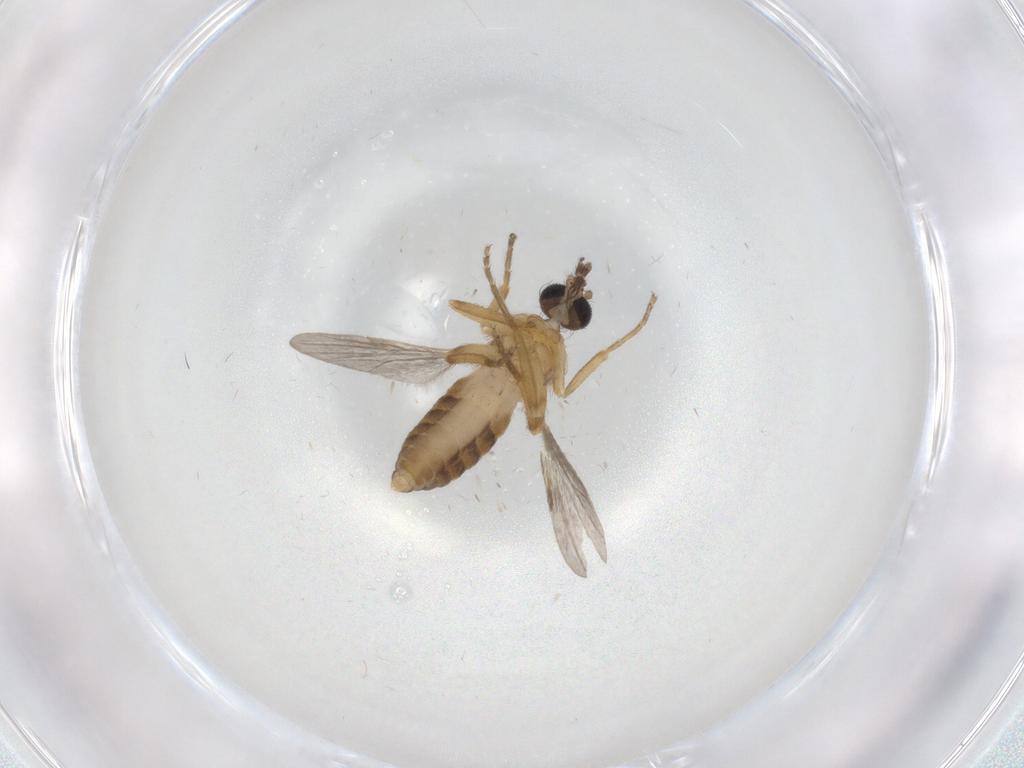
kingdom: Animalia
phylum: Arthropoda
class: Insecta
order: Diptera
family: Ceratopogonidae
